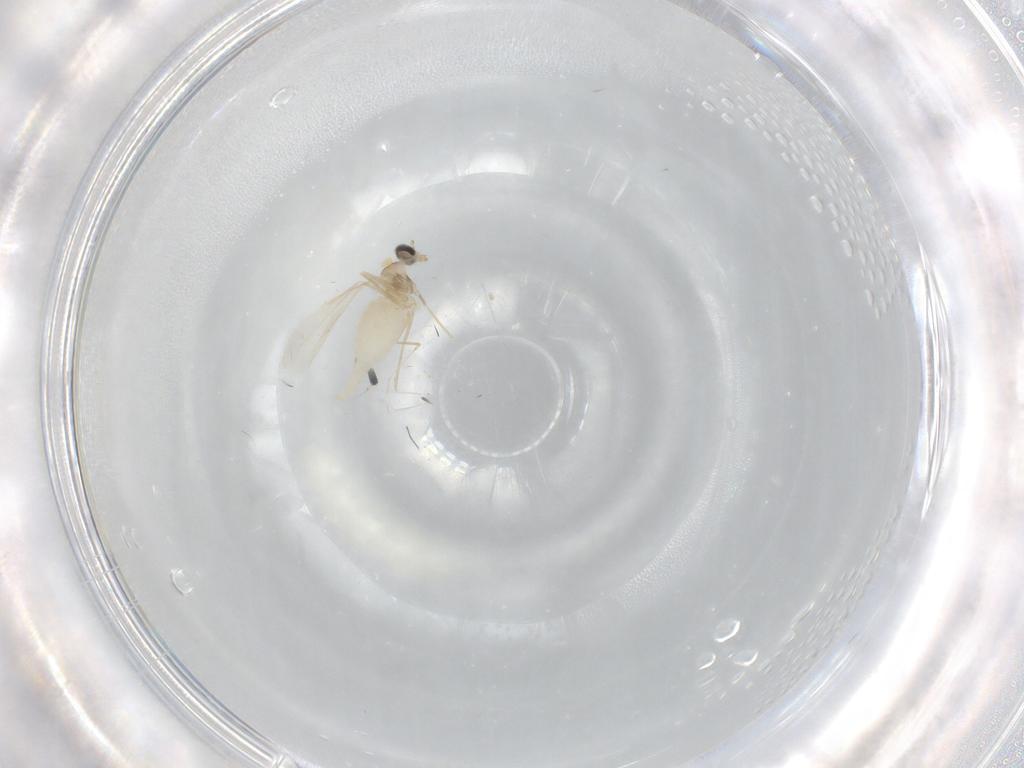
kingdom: Animalia
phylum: Arthropoda
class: Insecta
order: Diptera
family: Cecidomyiidae
